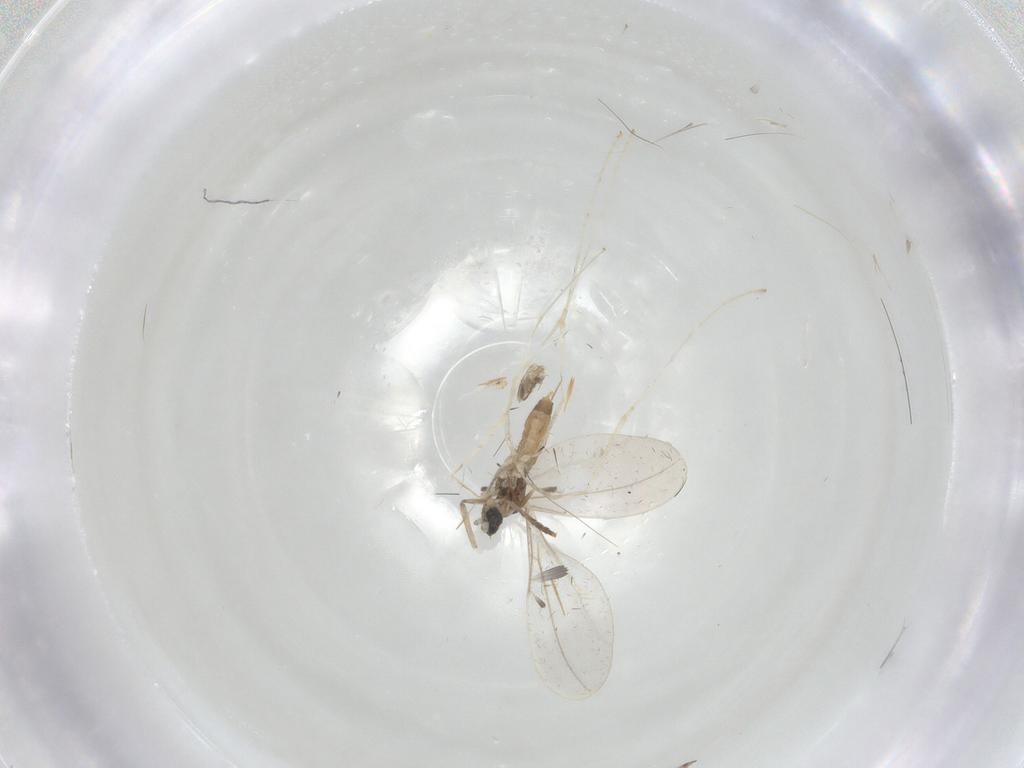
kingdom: Animalia
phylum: Arthropoda
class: Insecta
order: Diptera
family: Cecidomyiidae
